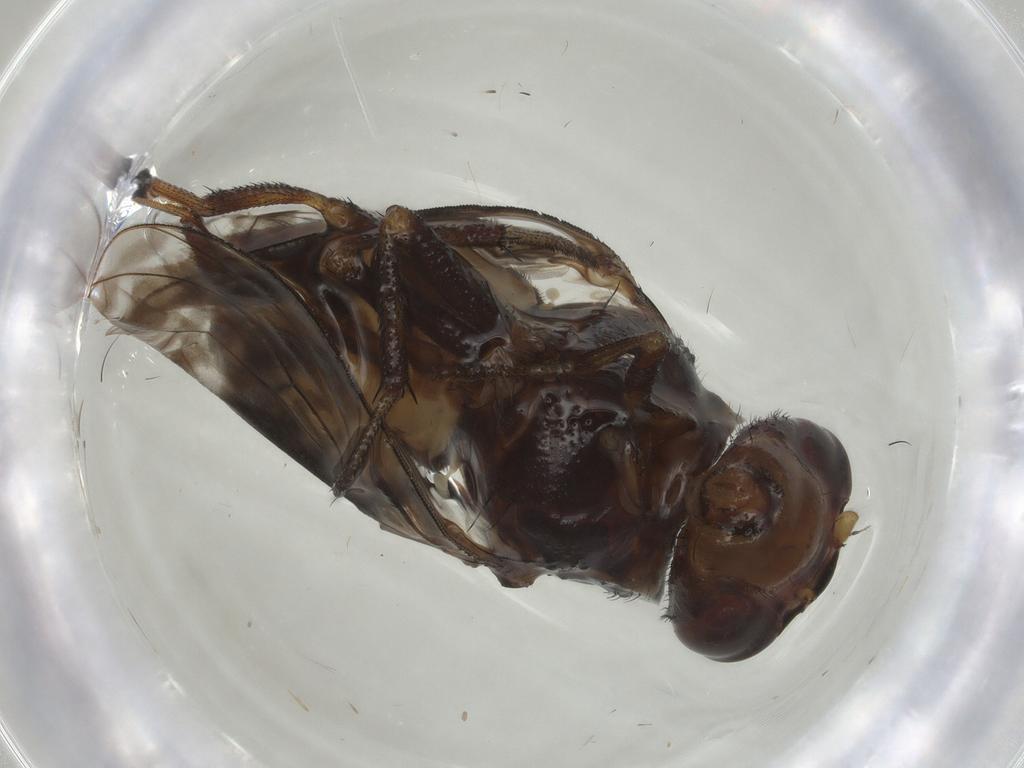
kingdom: Animalia
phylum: Arthropoda
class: Insecta
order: Diptera
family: Lauxaniidae
